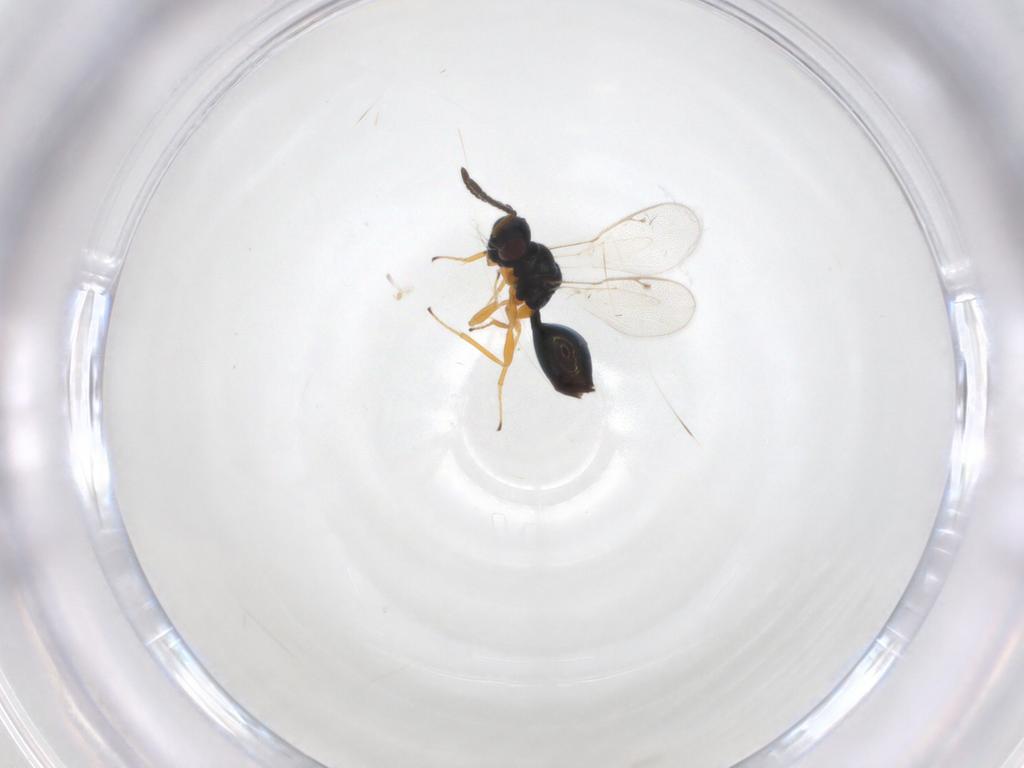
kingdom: Animalia
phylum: Arthropoda
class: Insecta
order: Hymenoptera
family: Pteromalidae
